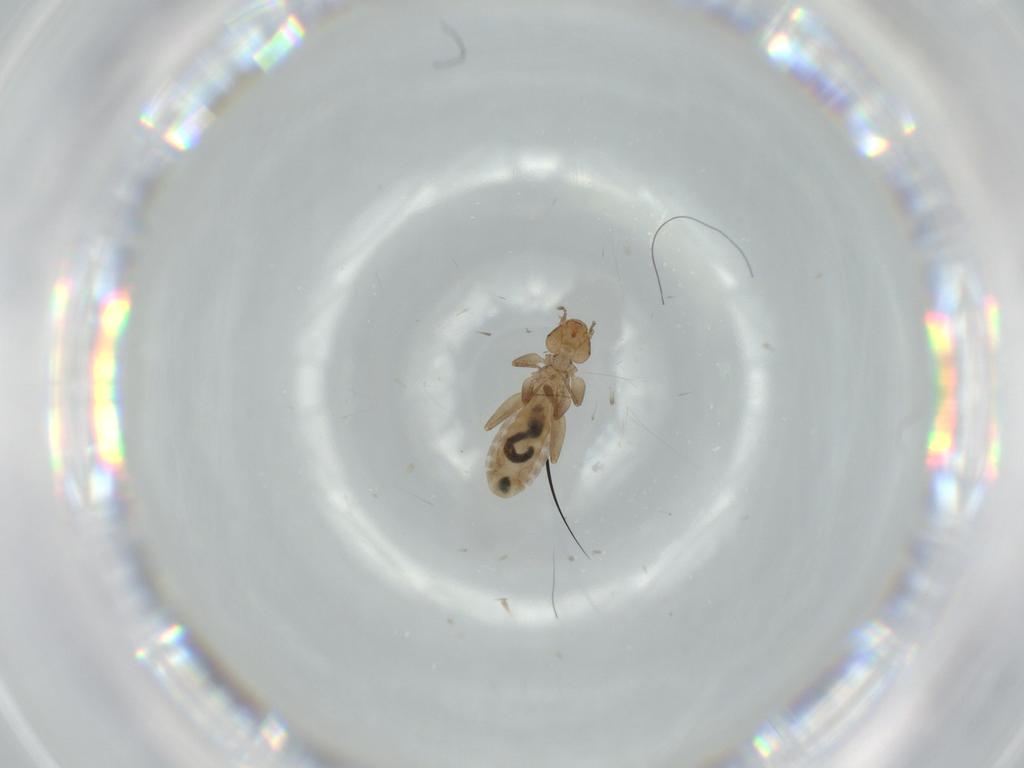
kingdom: Animalia
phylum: Arthropoda
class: Insecta
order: Psocodea
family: Liposcelididae
